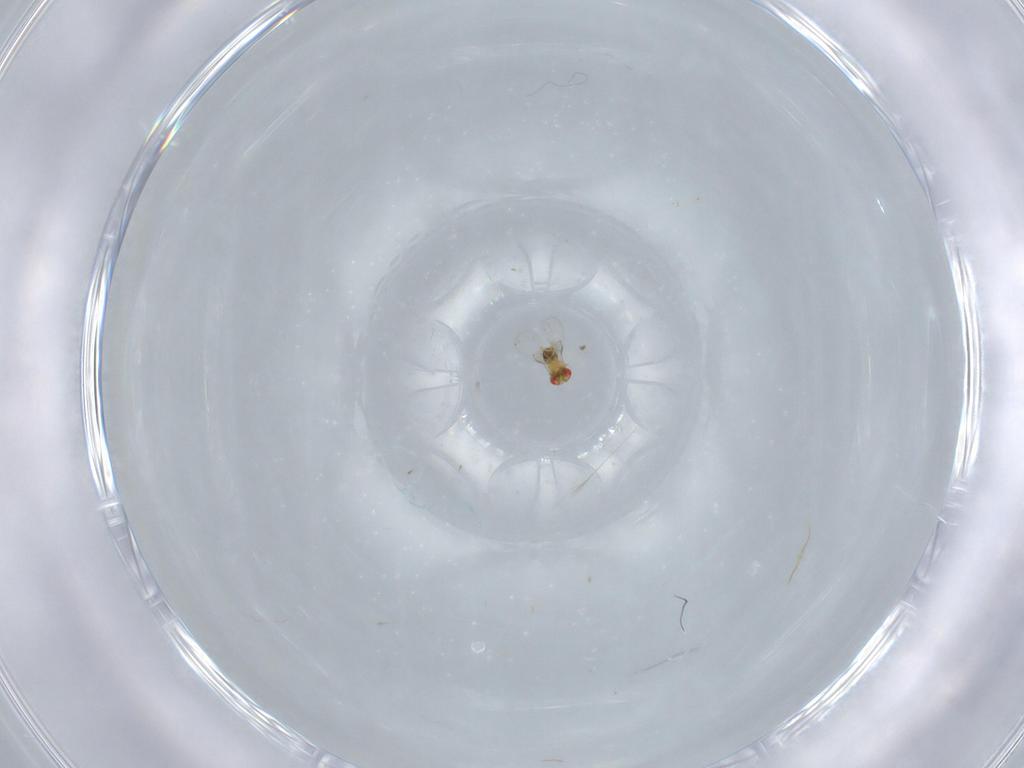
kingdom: Animalia
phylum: Arthropoda
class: Insecta
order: Hymenoptera
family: Trichogrammatidae
